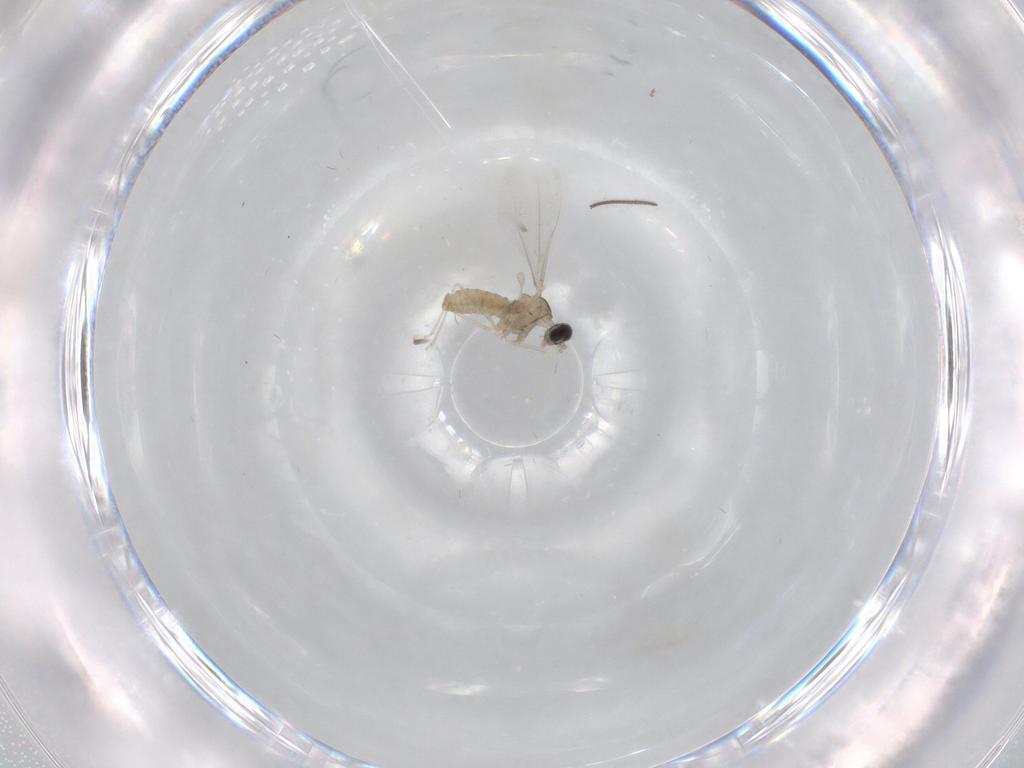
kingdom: Animalia
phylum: Arthropoda
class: Insecta
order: Diptera
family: Cecidomyiidae
